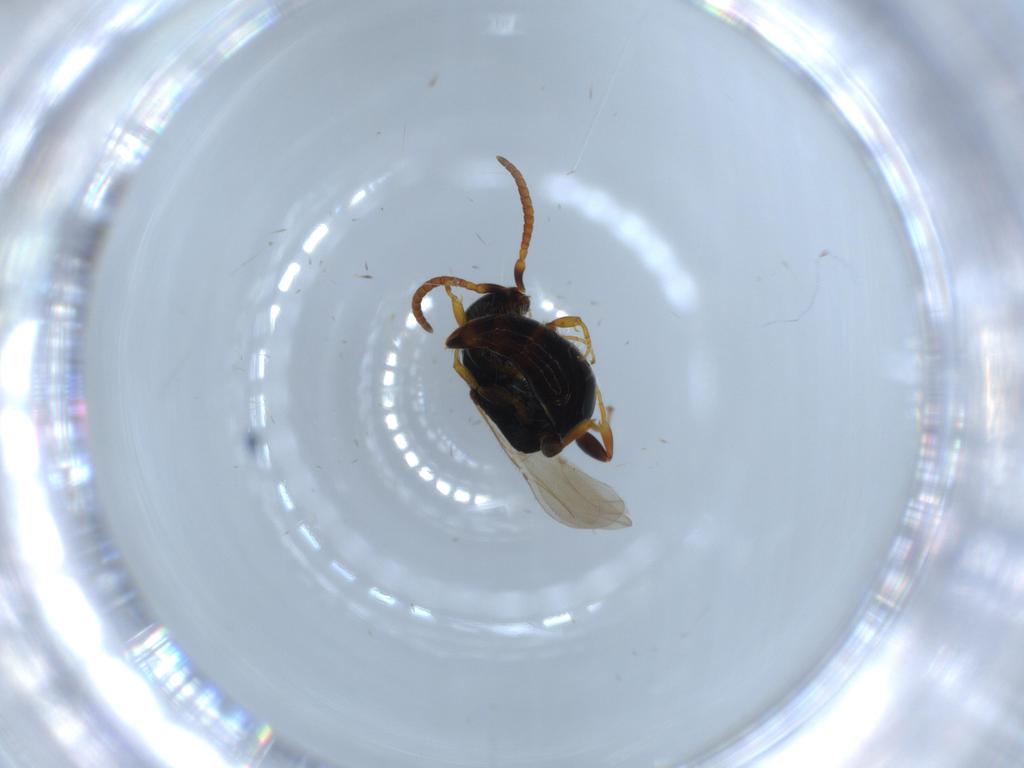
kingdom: Animalia
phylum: Arthropoda
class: Insecta
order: Hymenoptera
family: Bethylidae
